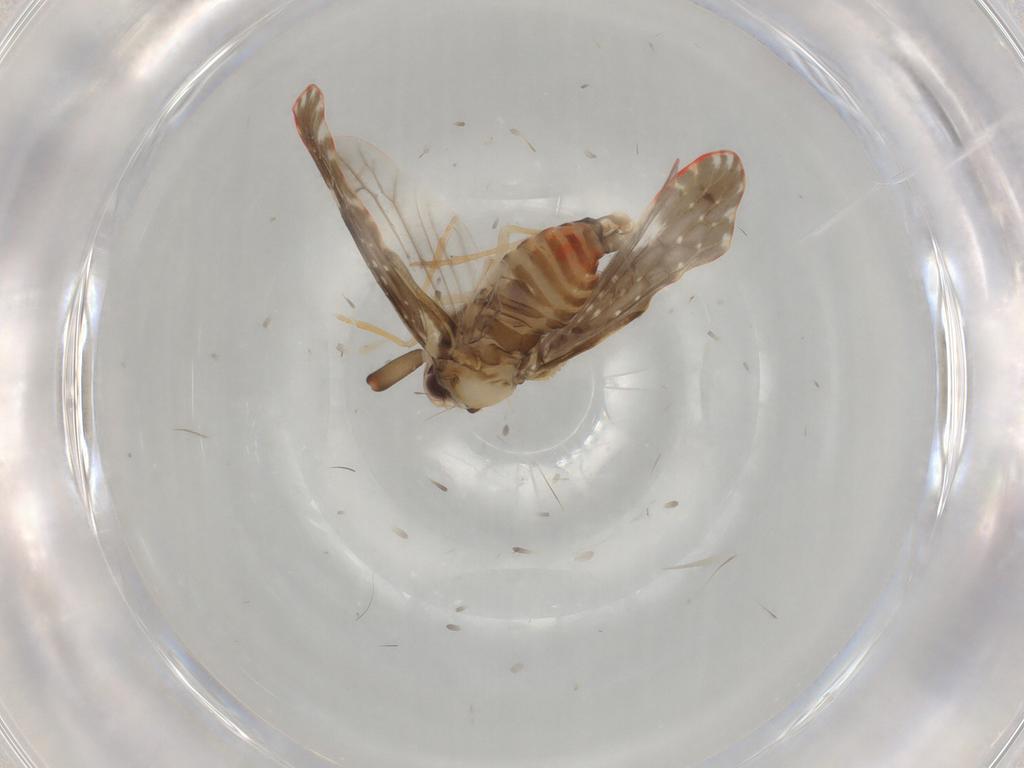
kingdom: Animalia
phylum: Arthropoda
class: Insecta
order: Hemiptera
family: Derbidae
